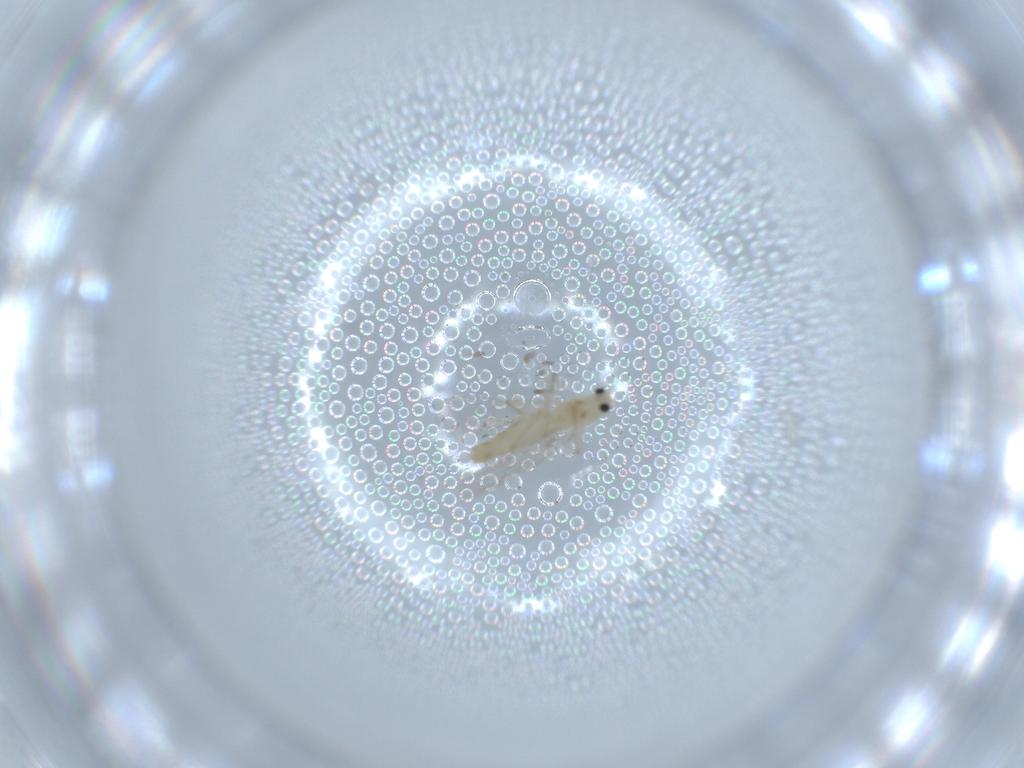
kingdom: Animalia
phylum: Arthropoda
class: Insecta
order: Diptera
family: Chironomidae
